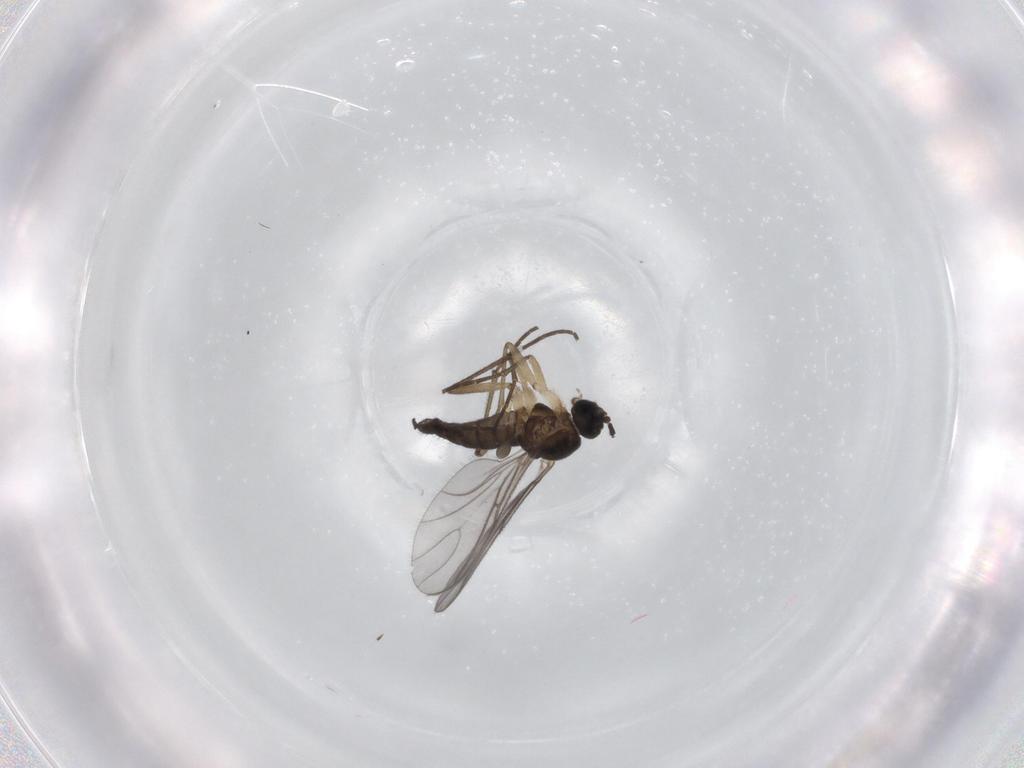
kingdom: Animalia
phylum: Arthropoda
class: Insecta
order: Diptera
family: Sciaridae
